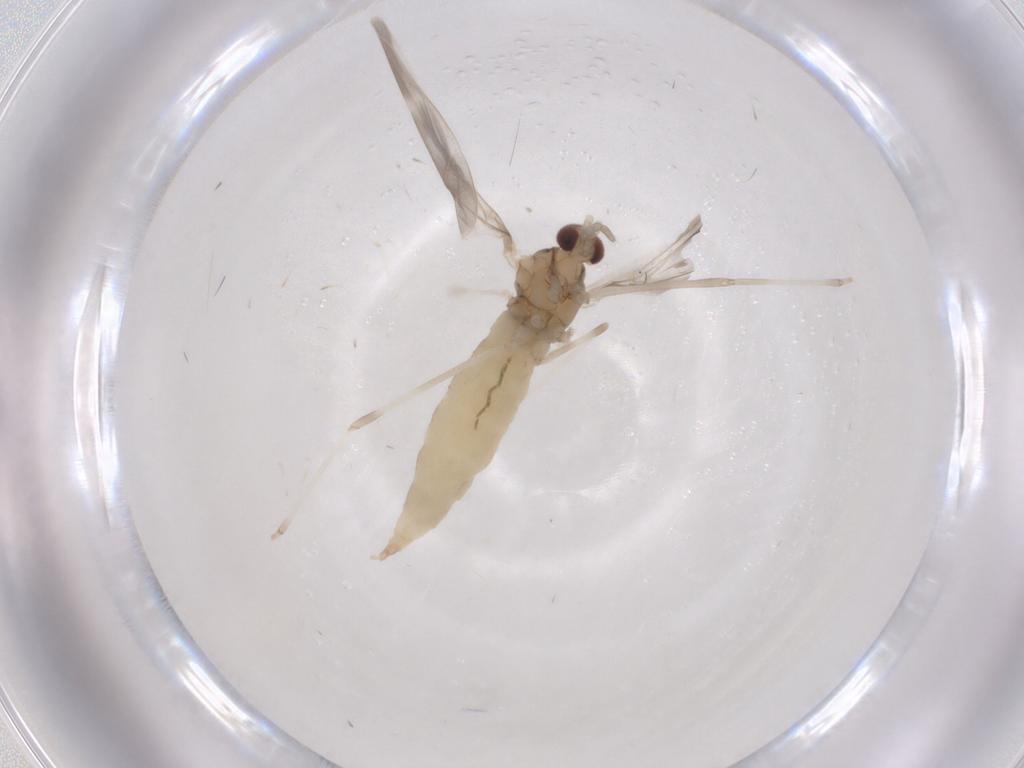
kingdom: Animalia
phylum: Arthropoda
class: Insecta
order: Diptera
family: Cecidomyiidae
